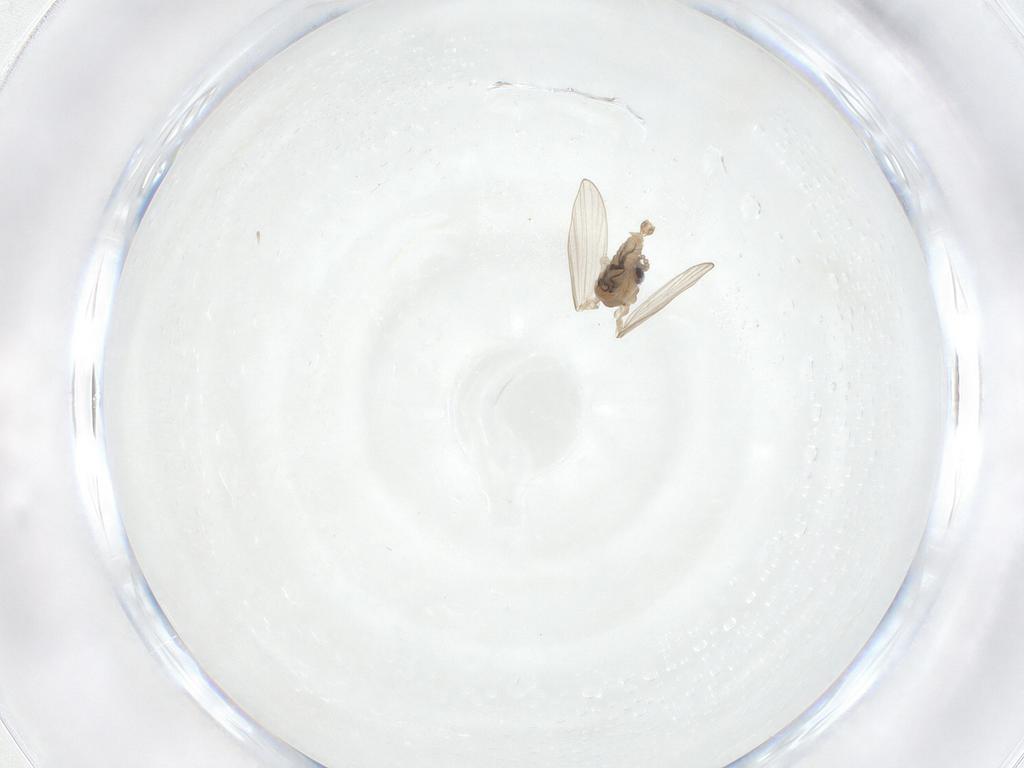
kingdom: Animalia
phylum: Arthropoda
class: Insecta
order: Diptera
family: Psychodidae
